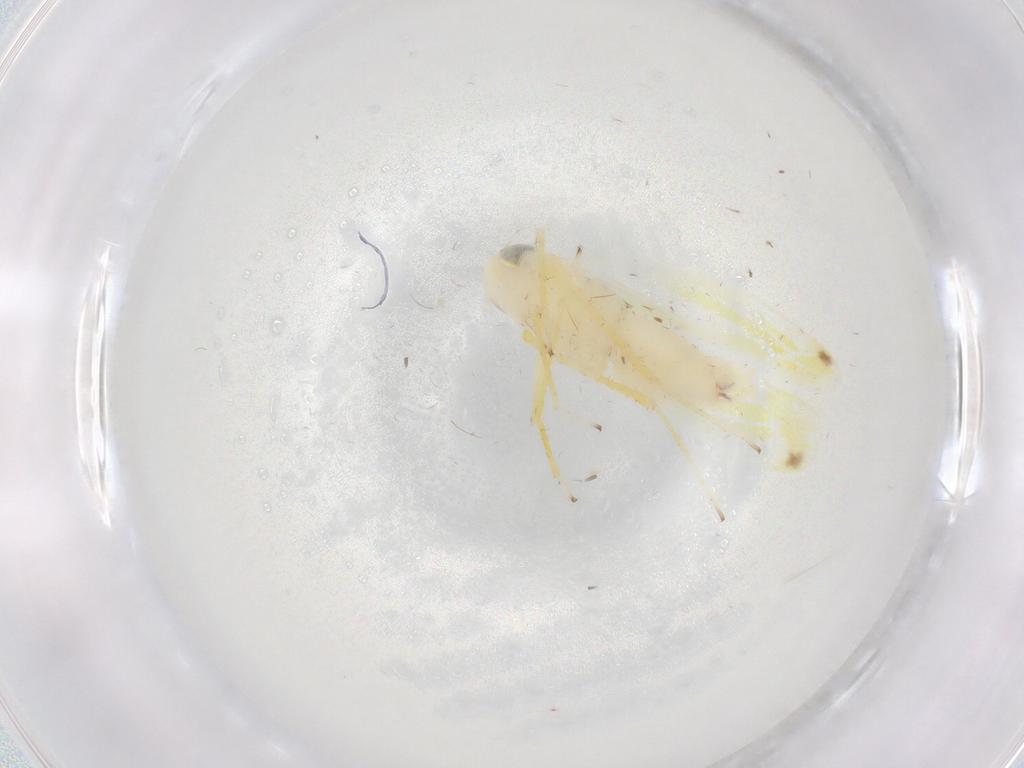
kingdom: Animalia
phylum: Arthropoda
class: Insecta
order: Hemiptera
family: Cicadellidae
